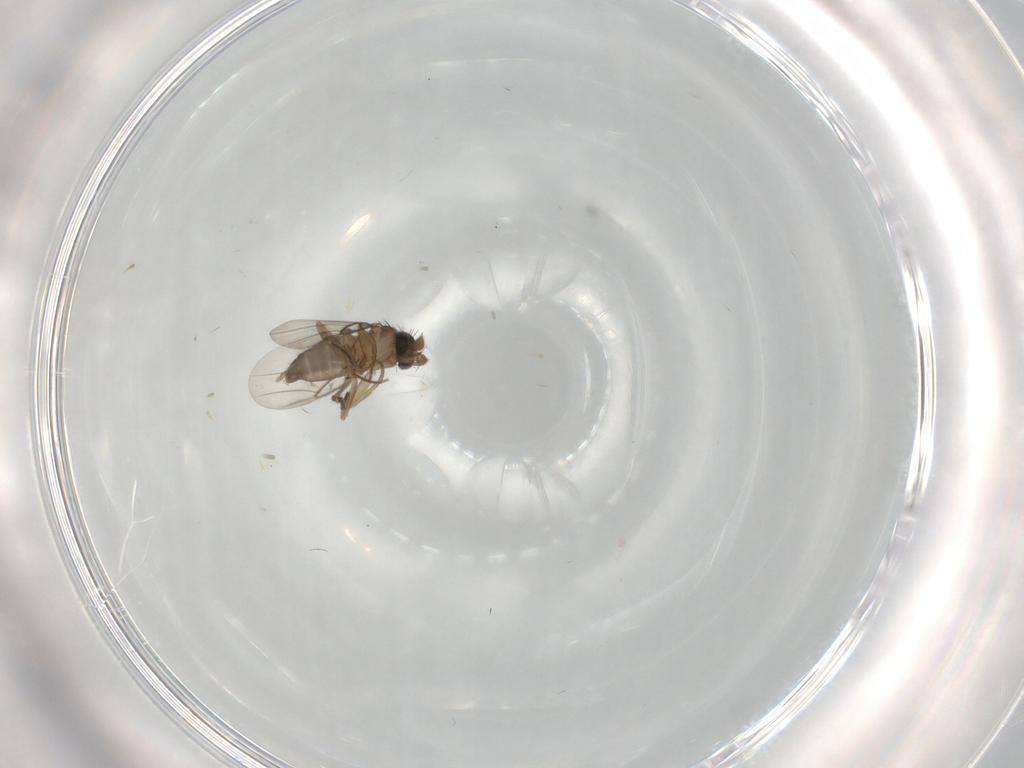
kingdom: Animalia
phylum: Arthropoda
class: Insecta
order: Diptera
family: Phoridae
